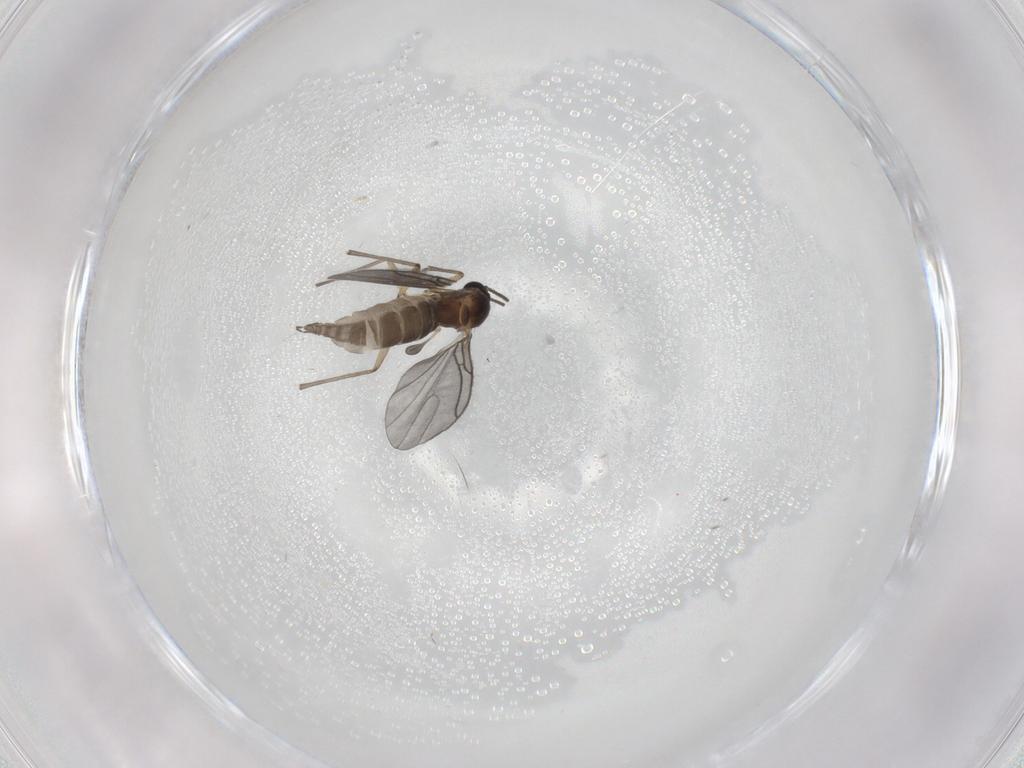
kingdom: Animalia
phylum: Arthropoda
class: Insecta
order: Diptera
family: Sciaridae
